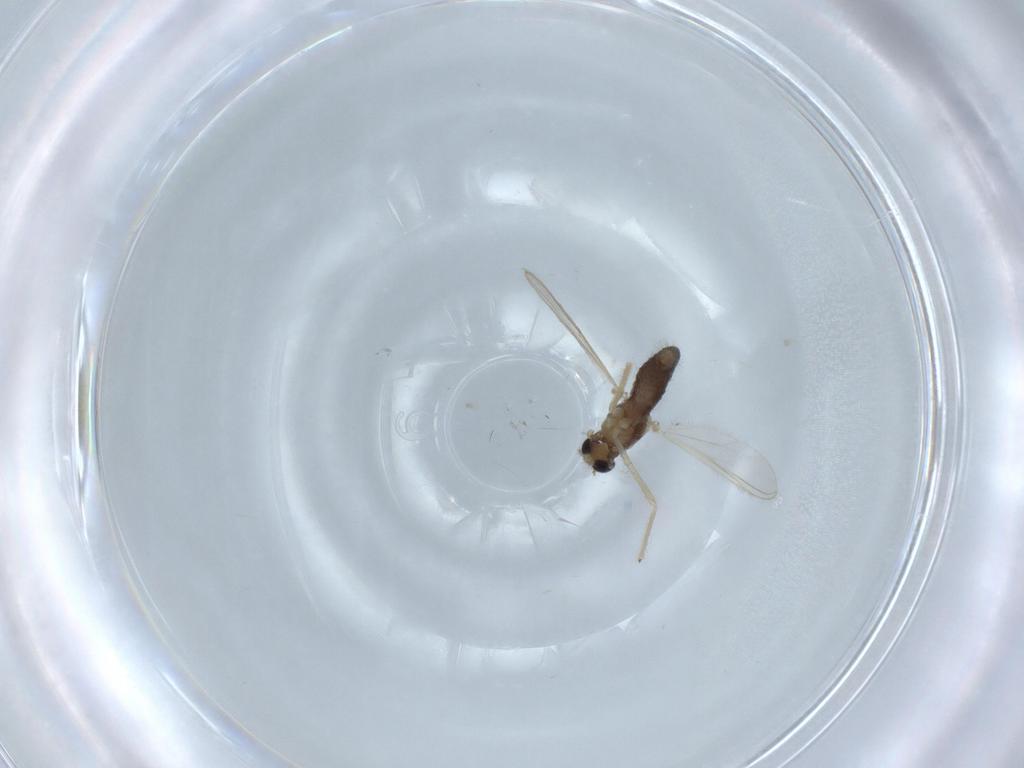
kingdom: Animalia
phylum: Arthropoda
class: Insecta
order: Diptera
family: Chironomidae
